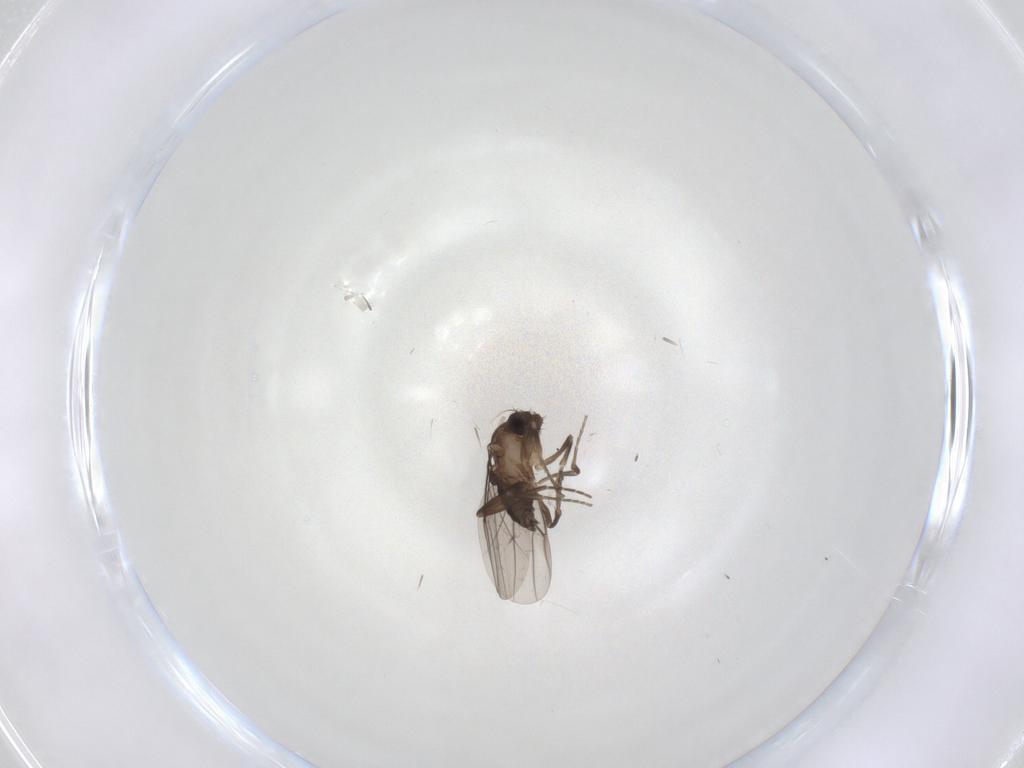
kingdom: Animalia
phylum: Arthropoda
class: Insecta
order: Diptera
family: Phoridae
